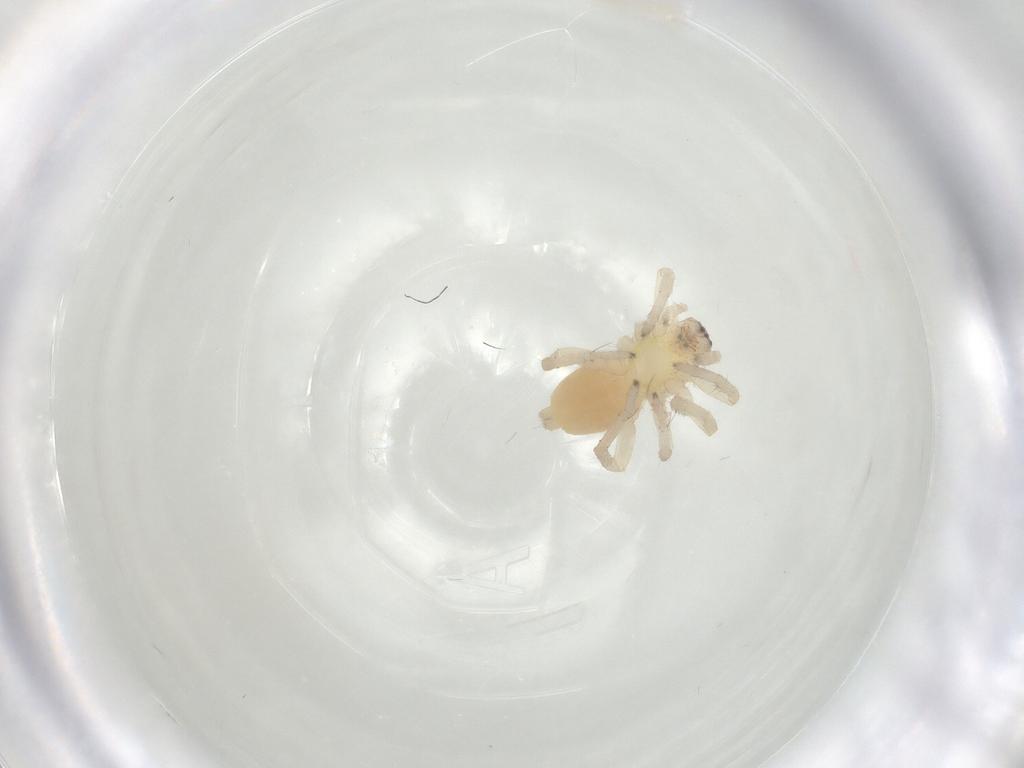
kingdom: Animalia
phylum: Arthropoda
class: Arachnida
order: Araneae
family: Clubionidae
